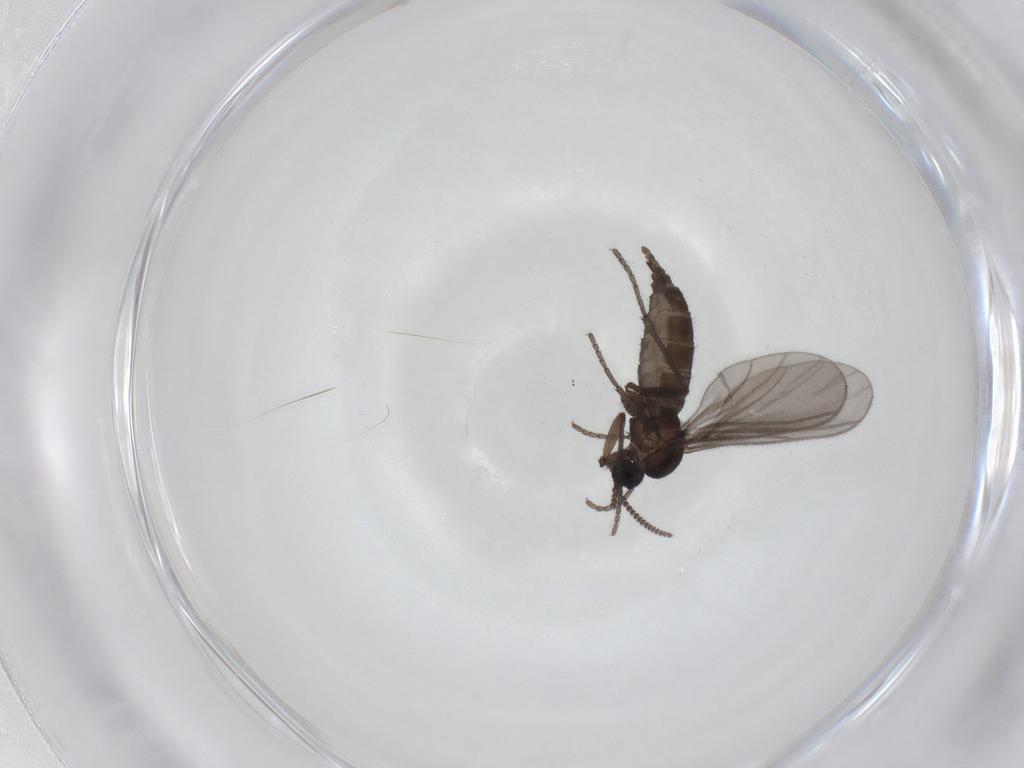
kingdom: Animalia
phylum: Arthropoda
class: Insecta
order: Diptera
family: Sciaridae
